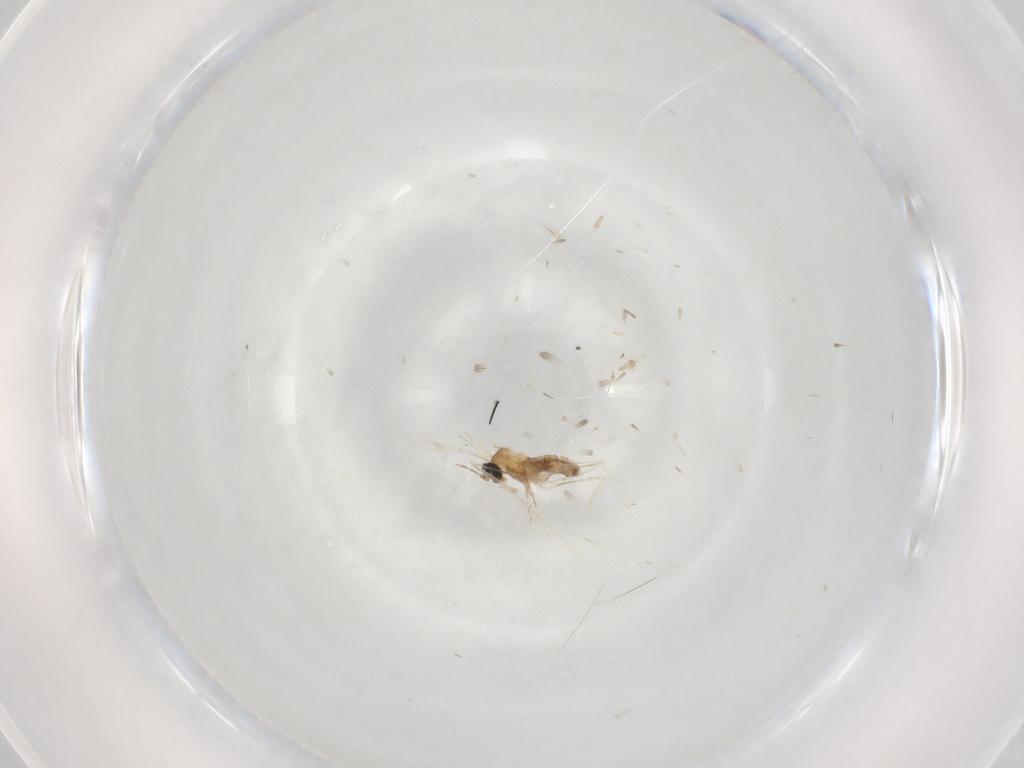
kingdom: Animalia
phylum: Arthropoda
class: Insecta
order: Diptera
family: Cecidomyiidae
